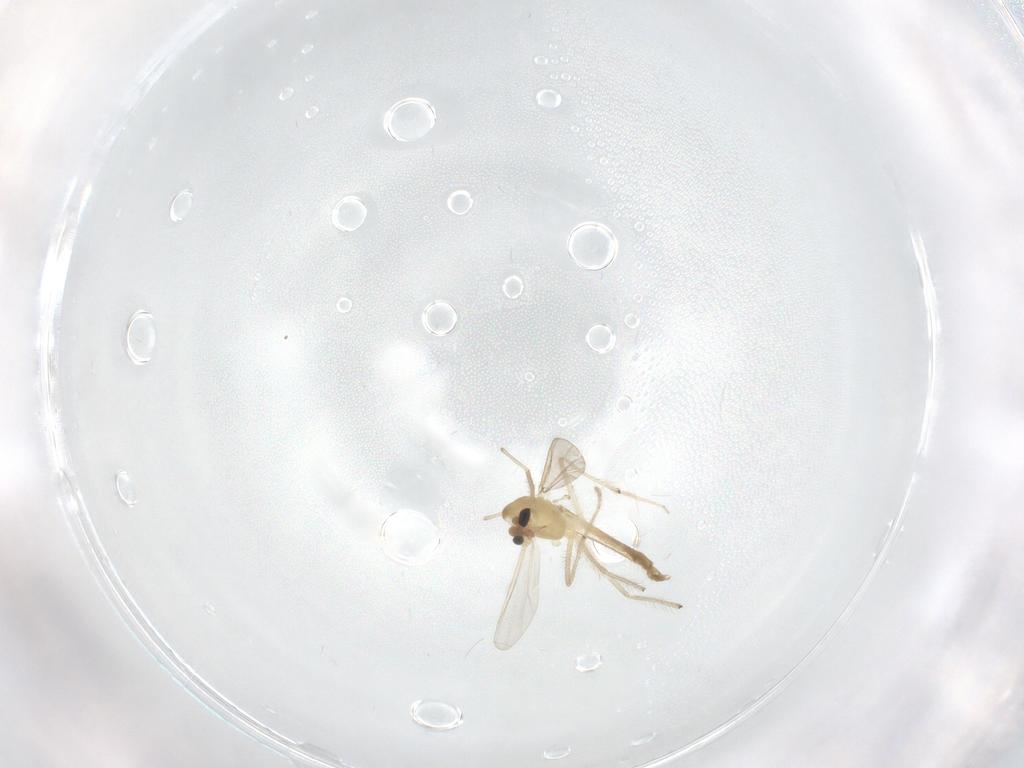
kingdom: Animalia
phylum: Arthropoda
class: Insecta
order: Diptera
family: Chironomidae
